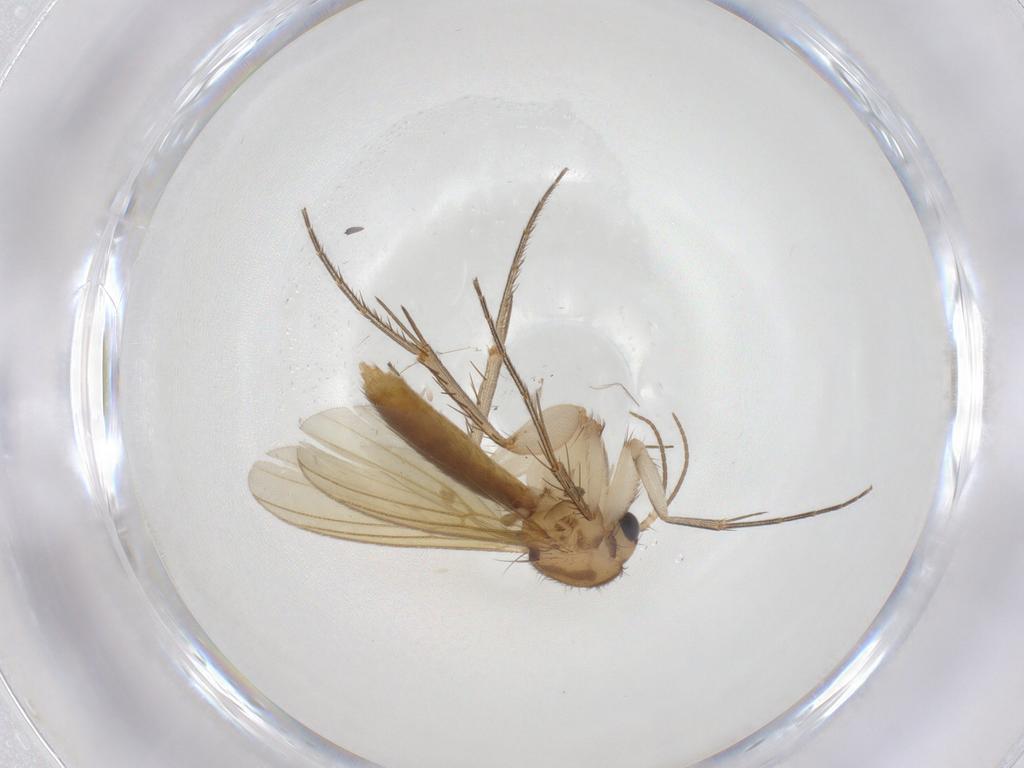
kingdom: Animalia
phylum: Arthropoda
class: Insecta
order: Diptera
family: Mycetophilidae
